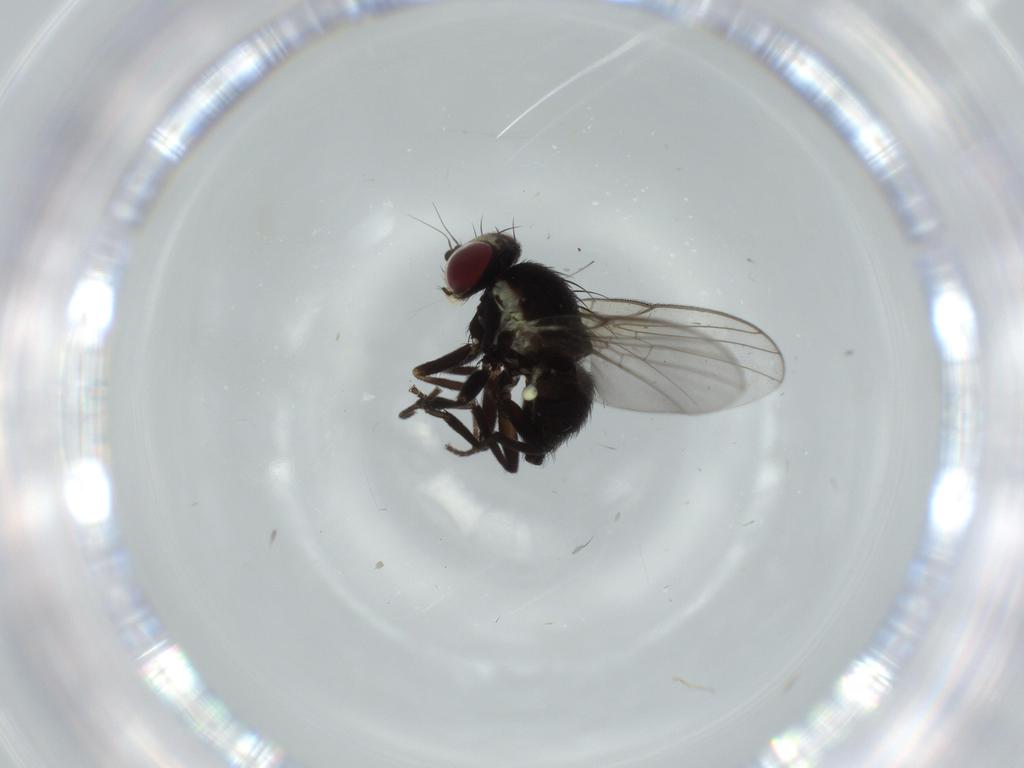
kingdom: Animalia
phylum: Arthropoda
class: Insecta
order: Diptera
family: Agromyzidae
